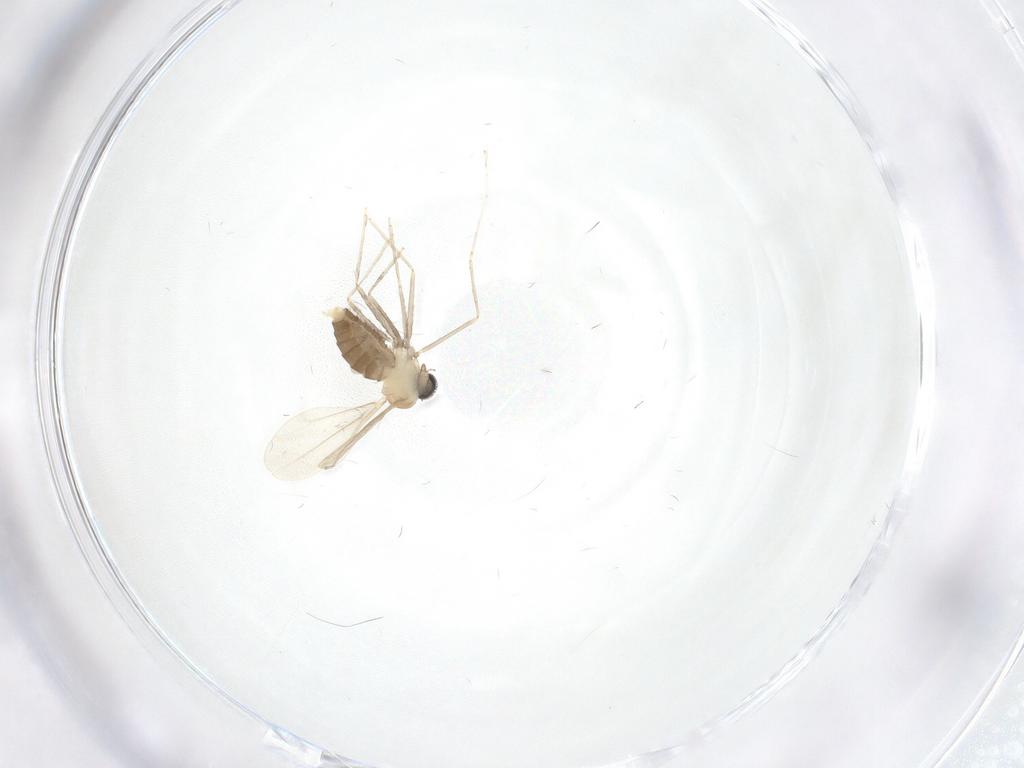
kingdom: Animalia
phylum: Arthropoda
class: Insecta
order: Diptera
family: Cecidomyiidae
